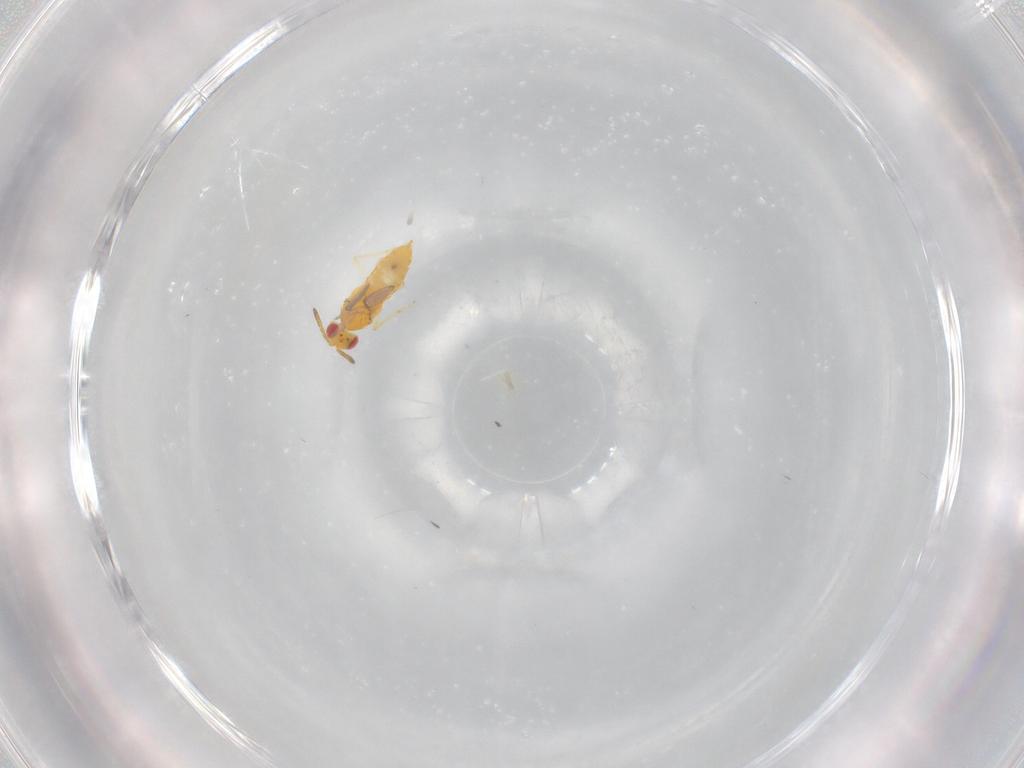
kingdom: Animalia
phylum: Arthropoda
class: Insecta
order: Hymenoptera
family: Aphelinidae
